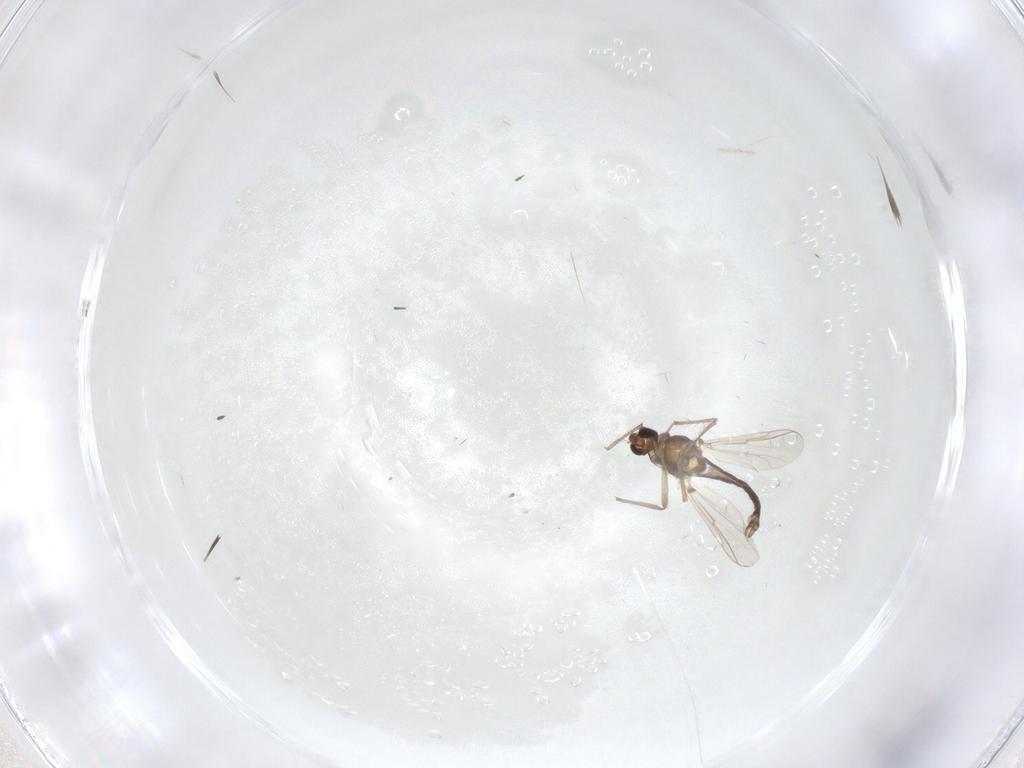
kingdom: Animalia
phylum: Arthropoda
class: Insecta
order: Diptera
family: Chironomidae
